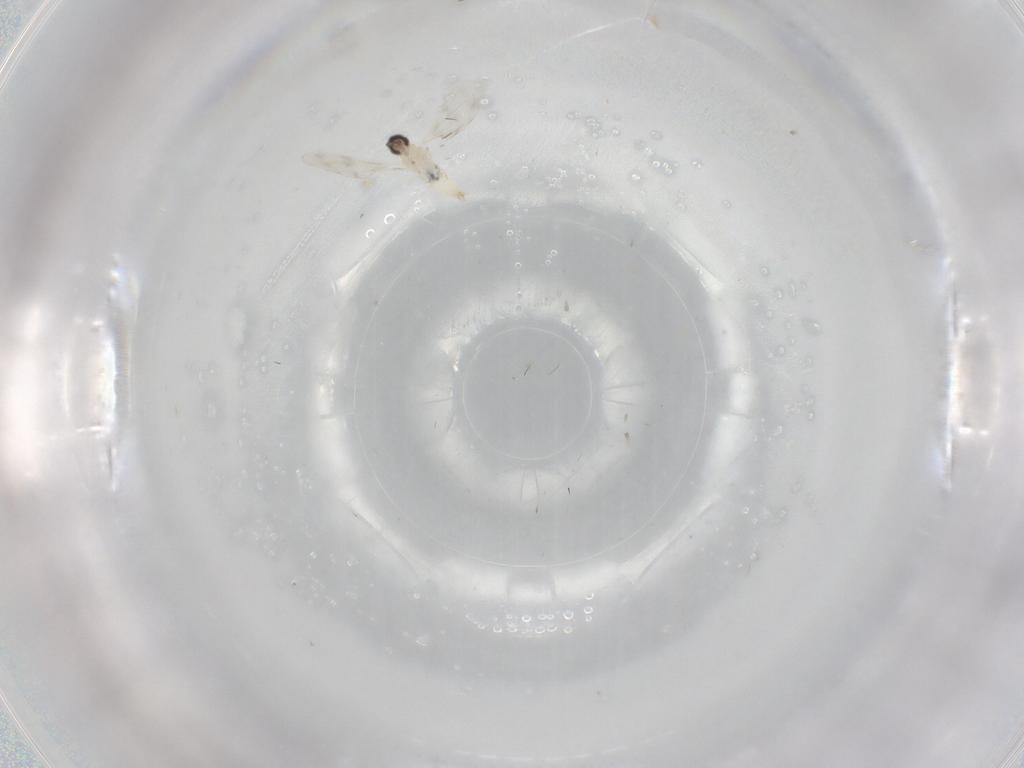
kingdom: Animalia
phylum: Arthropoda
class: Insecta
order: Diptera
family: Cecidomyiidae
